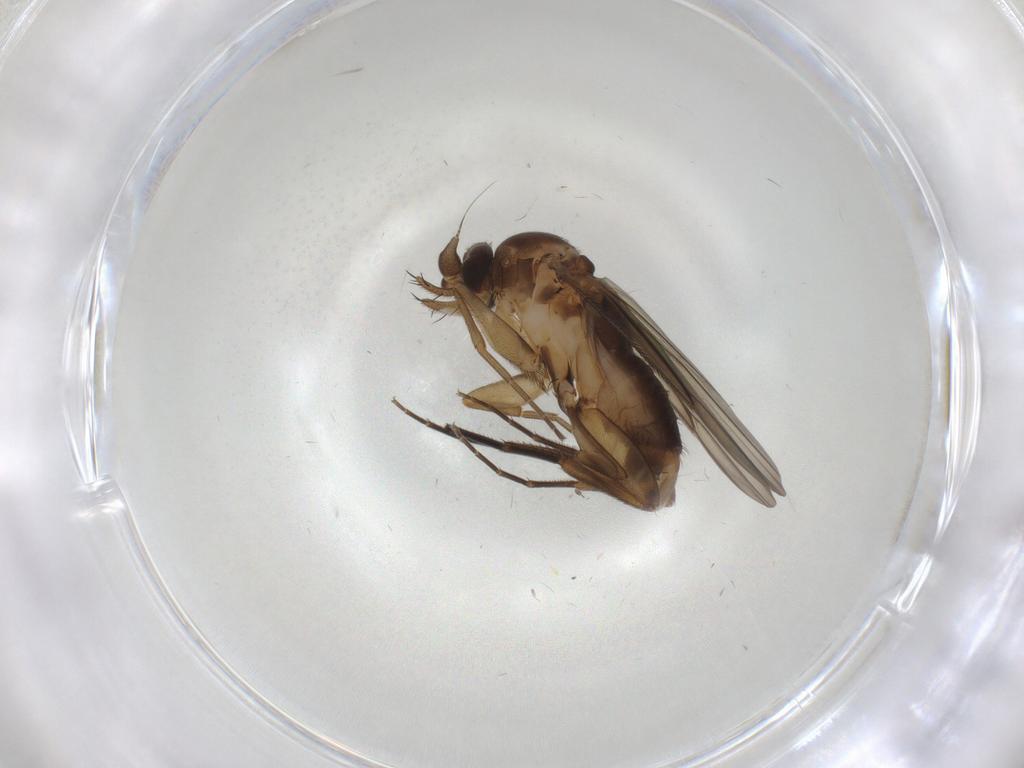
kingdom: Animalia
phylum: Arthropoda
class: Insecta
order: Diptera
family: Phoridae
